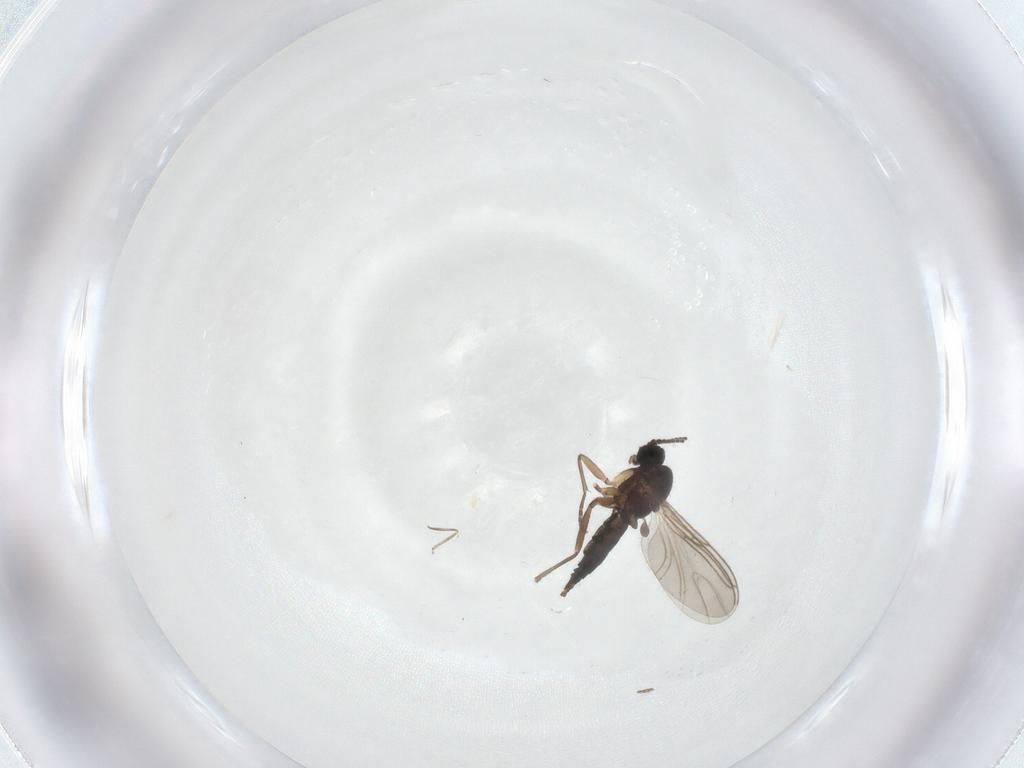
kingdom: Animalia
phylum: Arthropoda
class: Insecta
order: Diptera
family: Sciaridae
